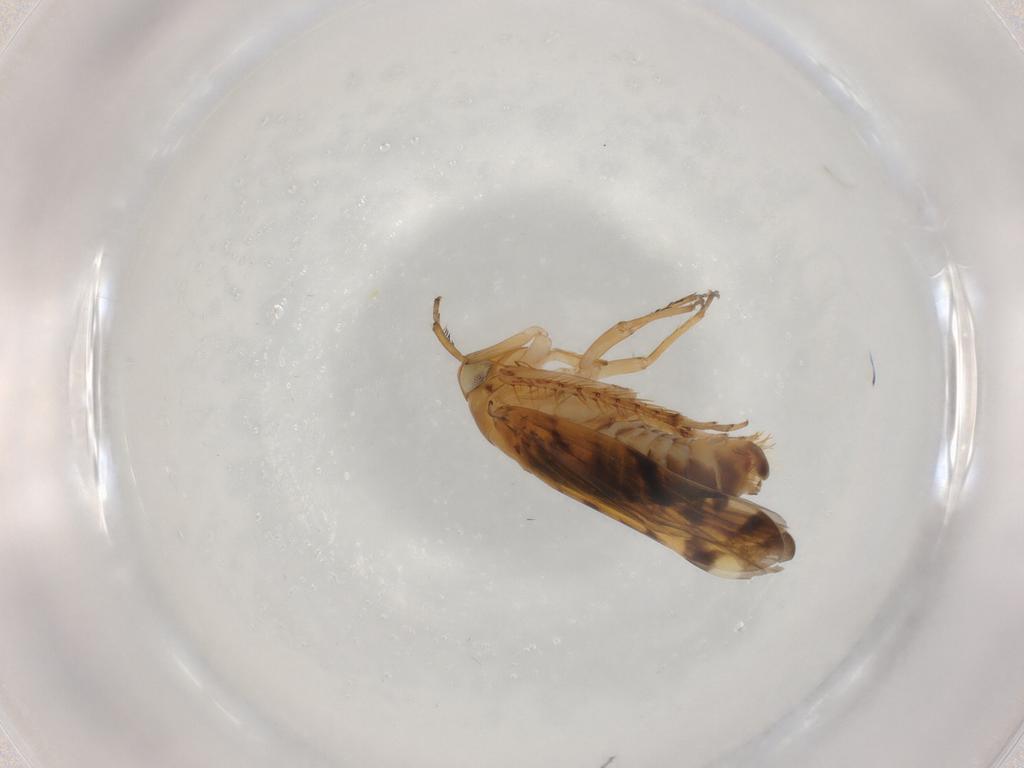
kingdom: Animalia
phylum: Arthropoda
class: Insecta
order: Hemiptera
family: Cicadellidae
